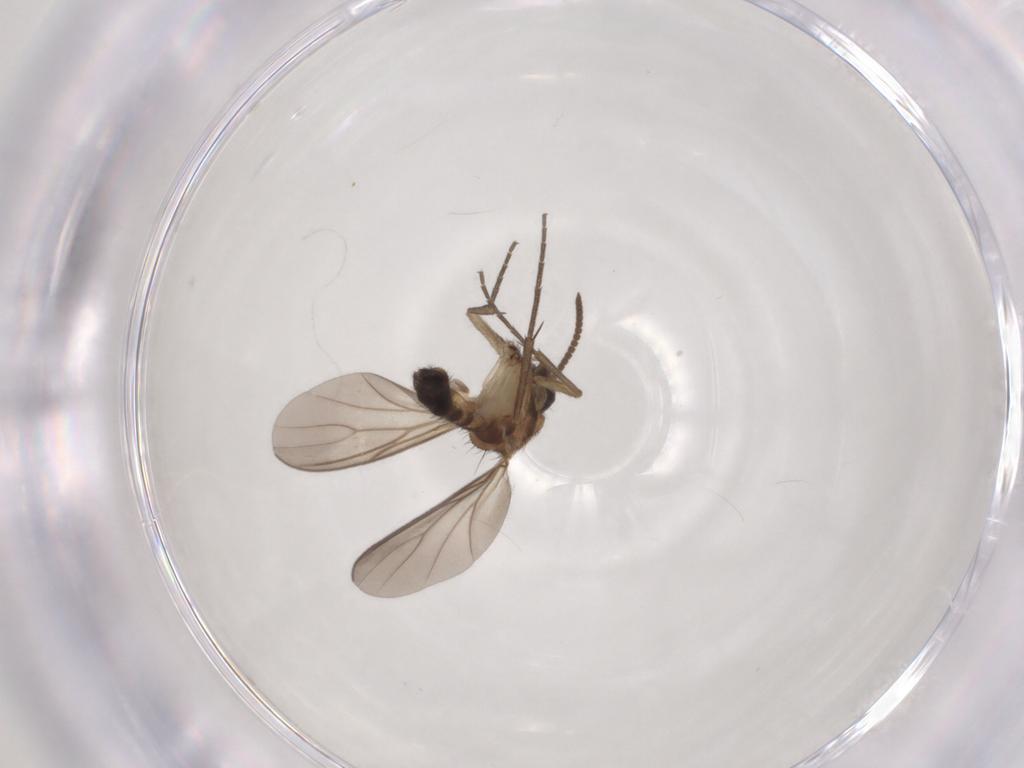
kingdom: Animalia
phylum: Arthropoda
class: Insecta
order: Diptera
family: Mycetophilidae
